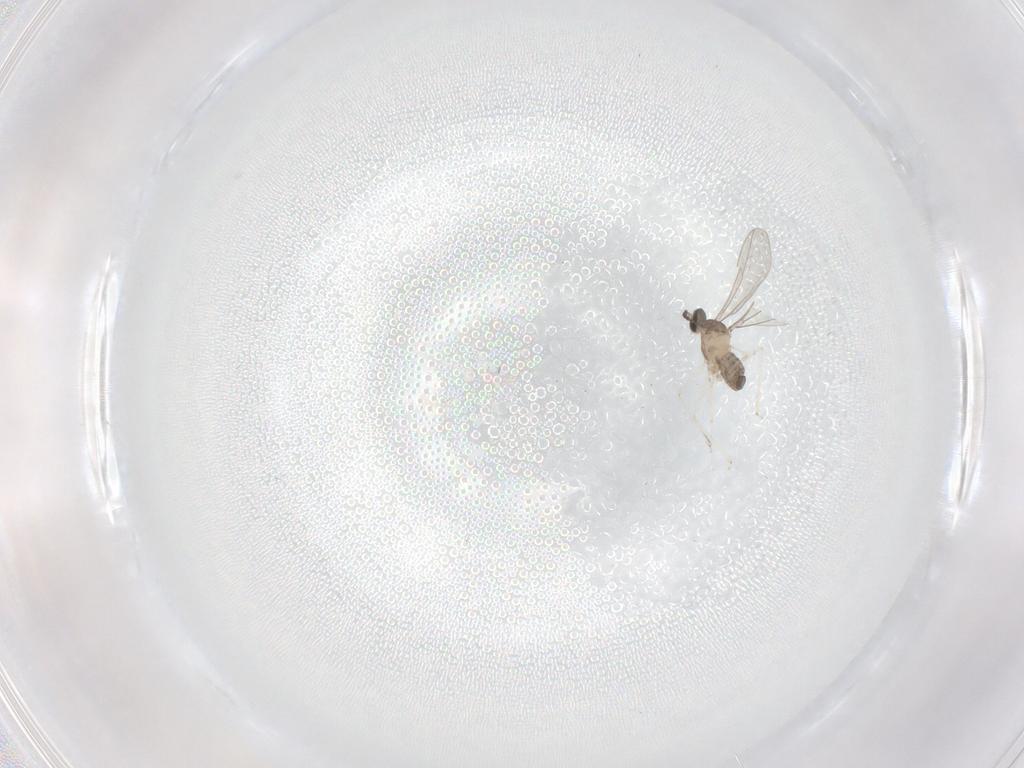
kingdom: Animalia
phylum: Arthropoda
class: Insecta
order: Diptera
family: Cecidomyiidae
